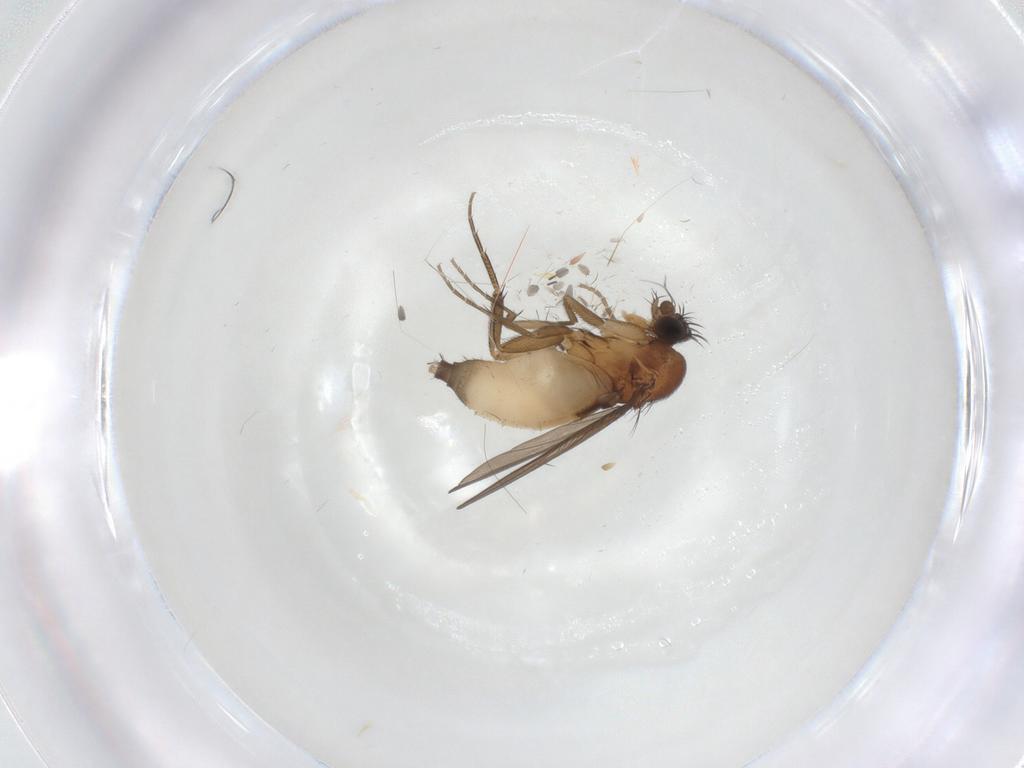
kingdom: Animalia
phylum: Arthropoda
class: Insecta
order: Diptera
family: Phoridae
